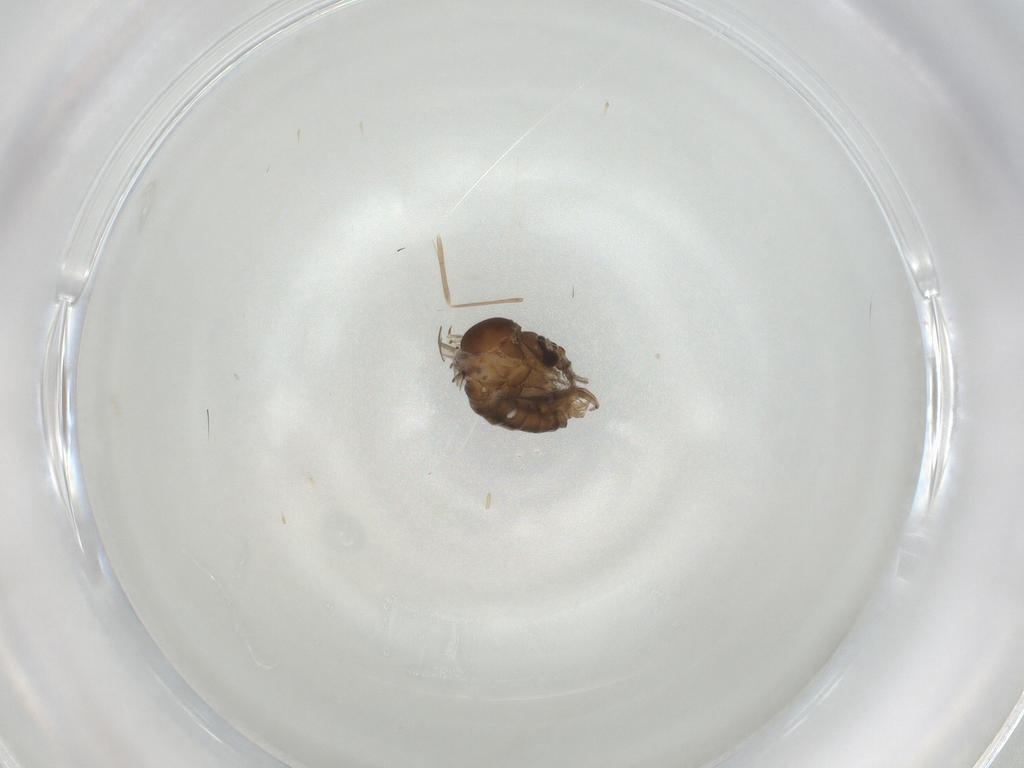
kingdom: Animalia
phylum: Arthropoda
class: Insecta
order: Diptera
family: Psychodidae
